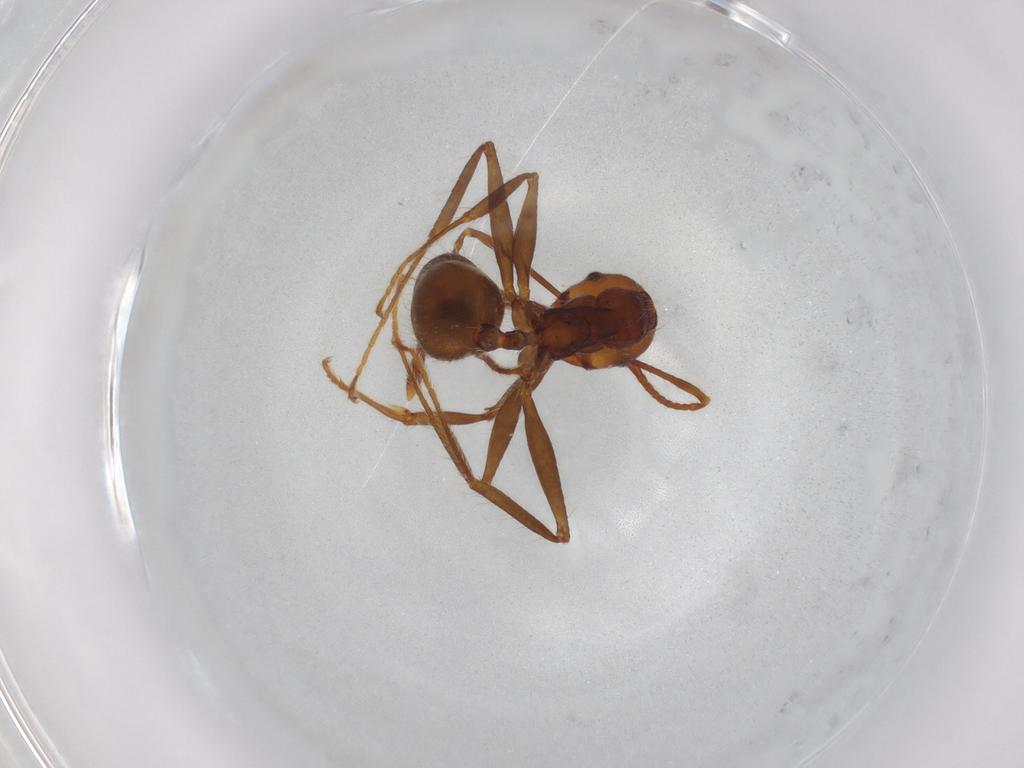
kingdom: Animalia
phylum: Arthropoda
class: Insecta
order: Hymenoptera
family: Formicidae
